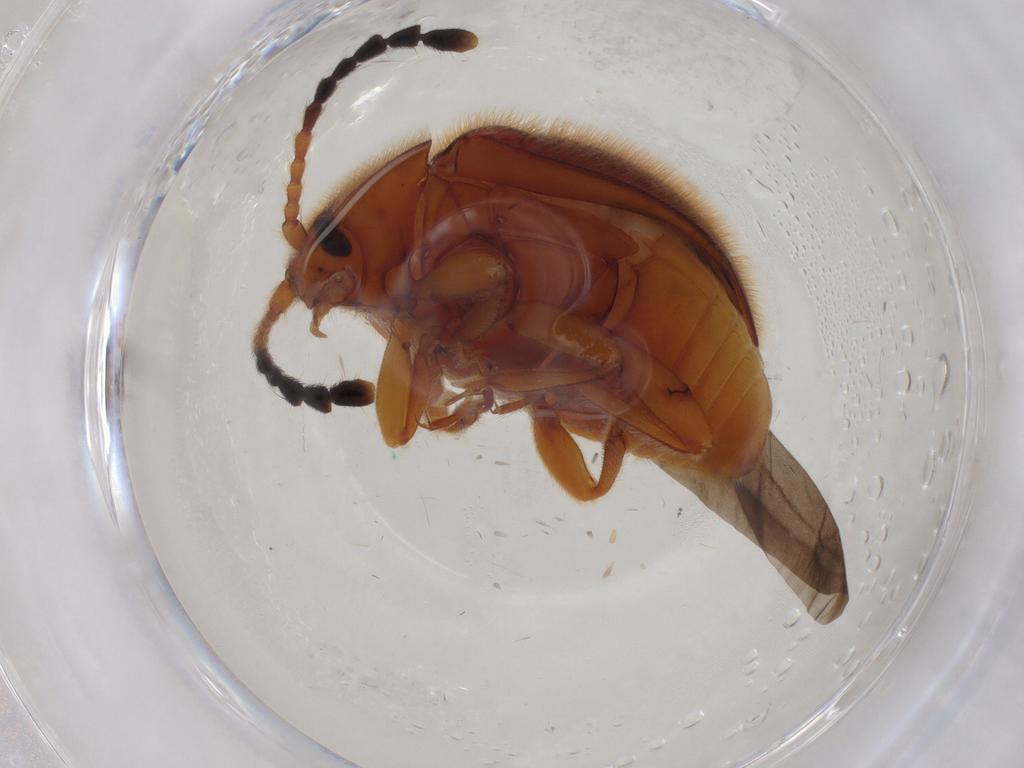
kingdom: Animalia
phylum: Arthropoda
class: Insecta
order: Coleoptera
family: Endomychidae
